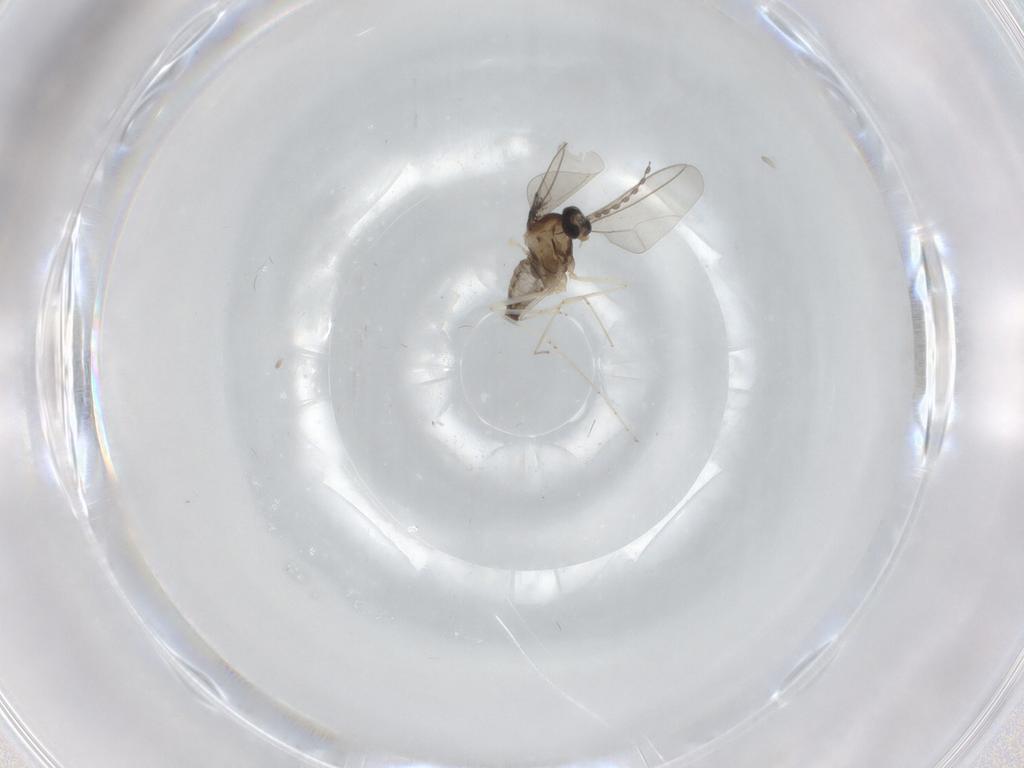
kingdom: Animalia
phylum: Arthropoda
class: Insecta
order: Diptera
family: Cecidomyiidae
